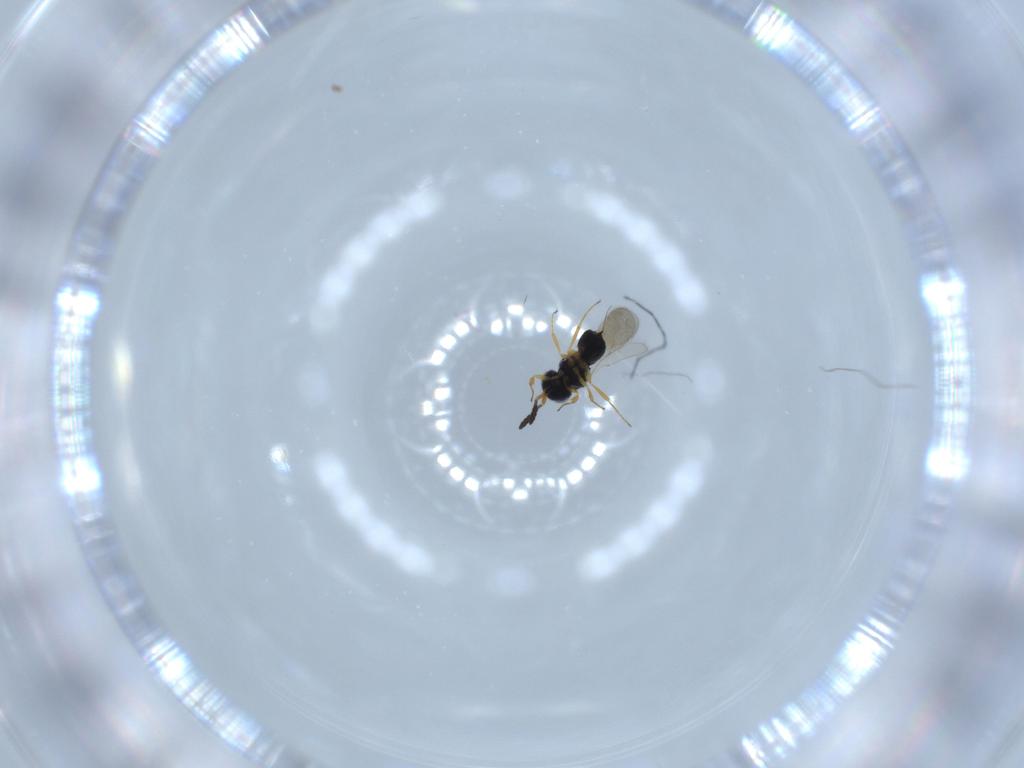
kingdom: Animalia
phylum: Arthropoda
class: Insecta
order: Hymenoptera
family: Scelionidae
